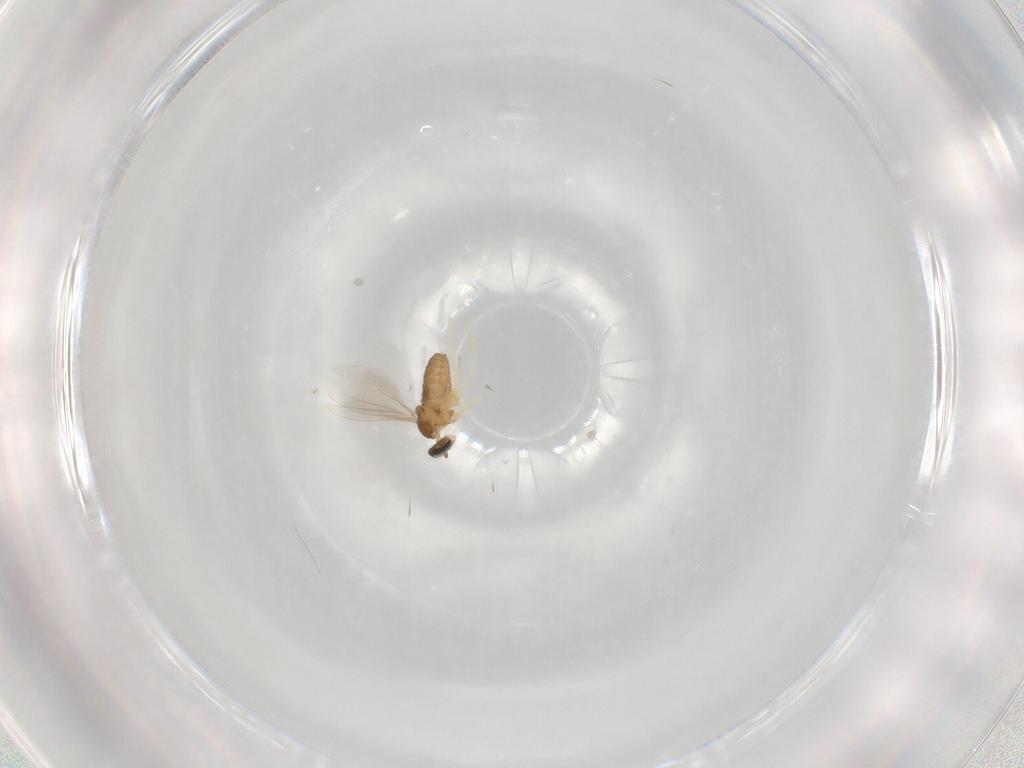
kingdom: Animalia
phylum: Arthropoda
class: Insecta
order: Diptera
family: Cecidomyiidae
